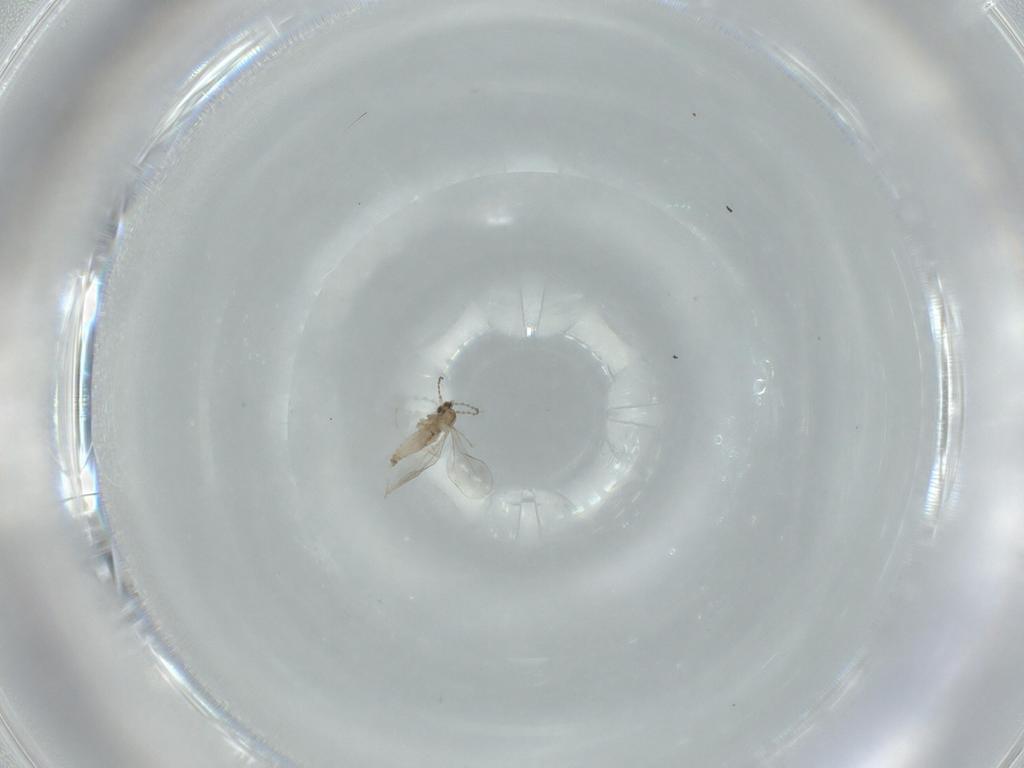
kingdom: Animalia
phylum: Arthropoda
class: Insecta
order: Diptera
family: Cecidomyiidae
